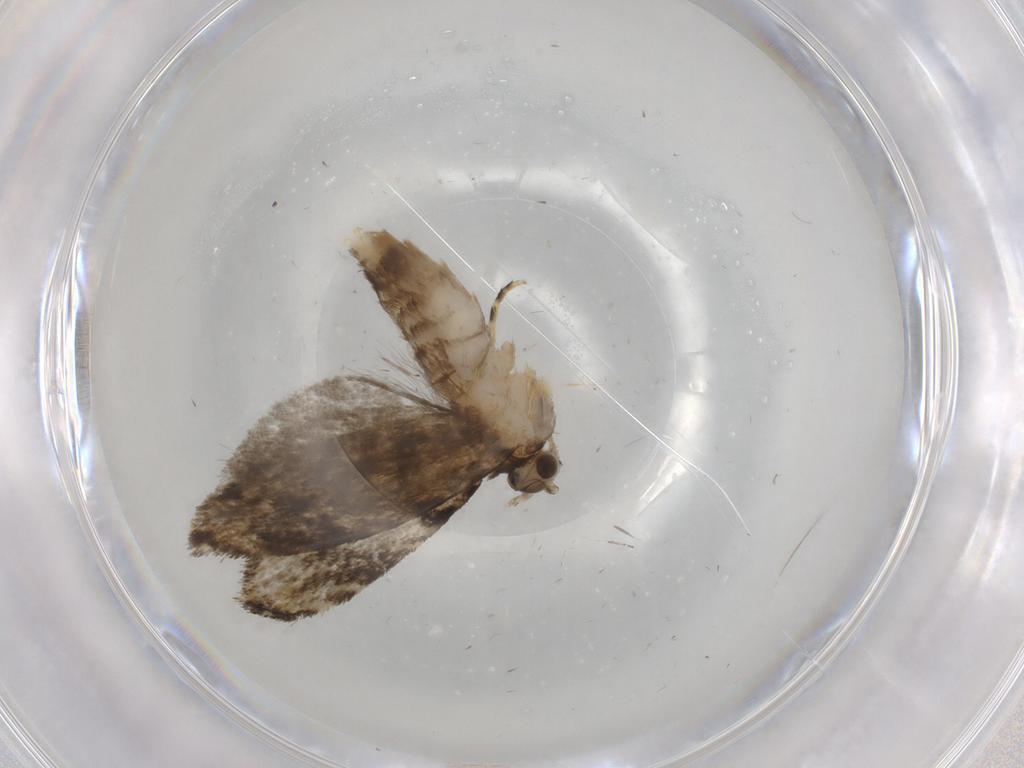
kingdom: Animalia
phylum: Arthropoda
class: Insecta
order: Lepidoptera
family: Tineidae
